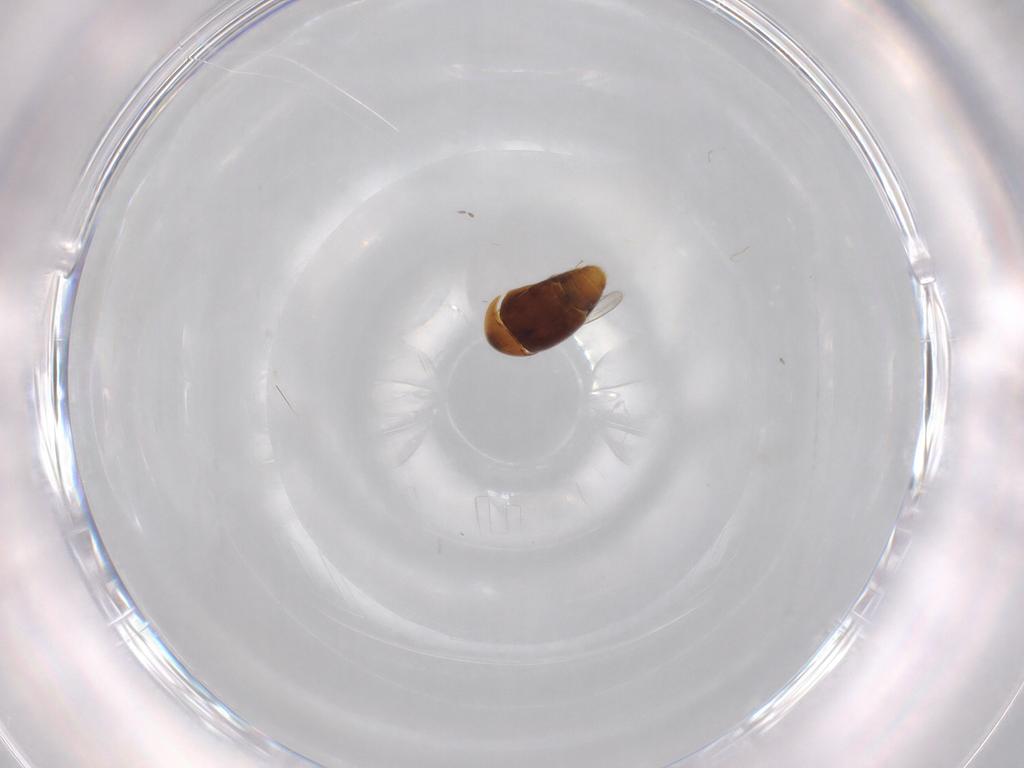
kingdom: Animalia
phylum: Arthropoda
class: Insecta
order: Coleoptera
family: Corylophidae
